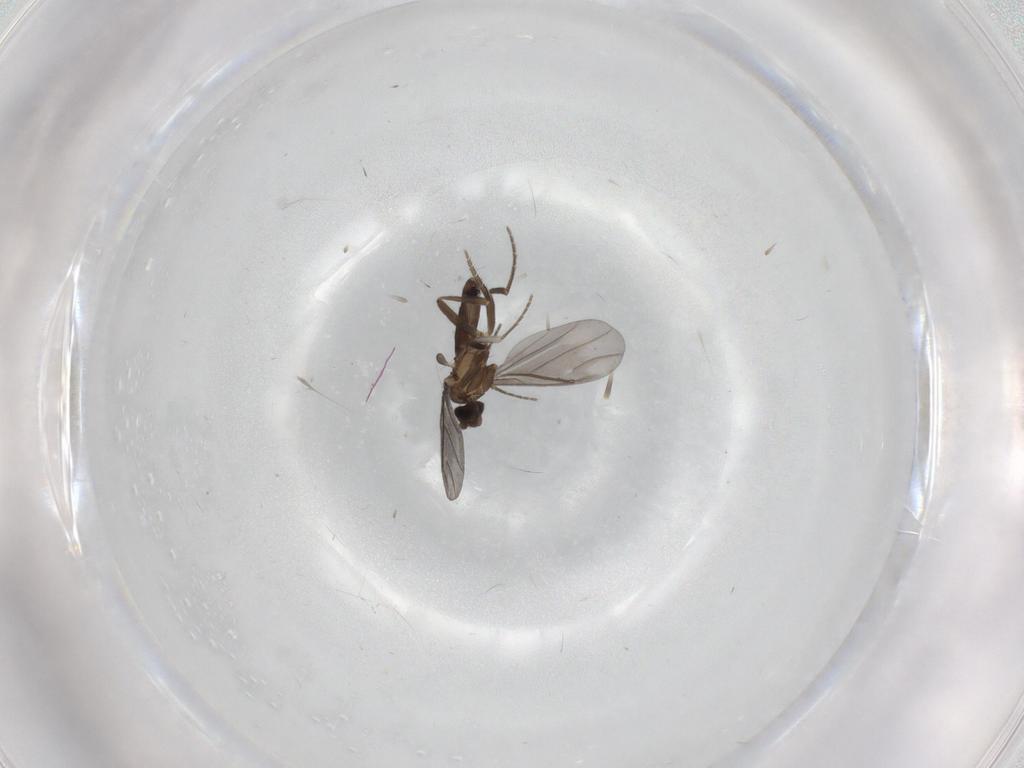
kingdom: Animalia
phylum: Arthropoda
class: Insecta
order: Diptera
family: Phoridae
